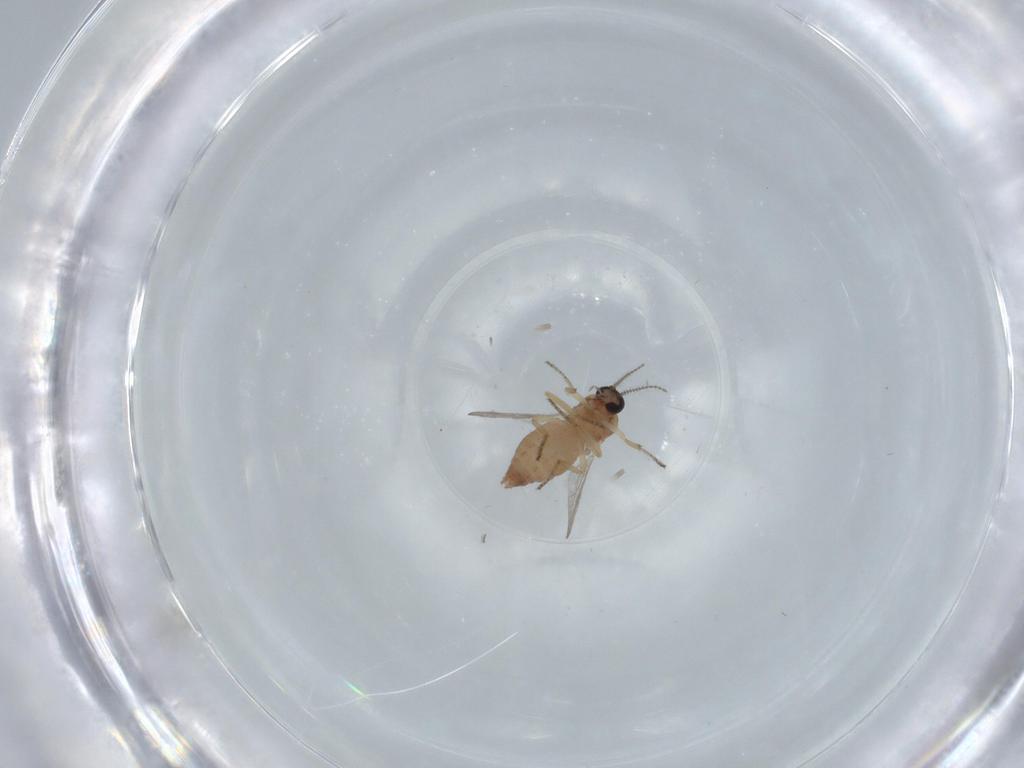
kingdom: Animalia
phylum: Arthropoda
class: Insecta
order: Diptera
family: Ceratopogonidae
